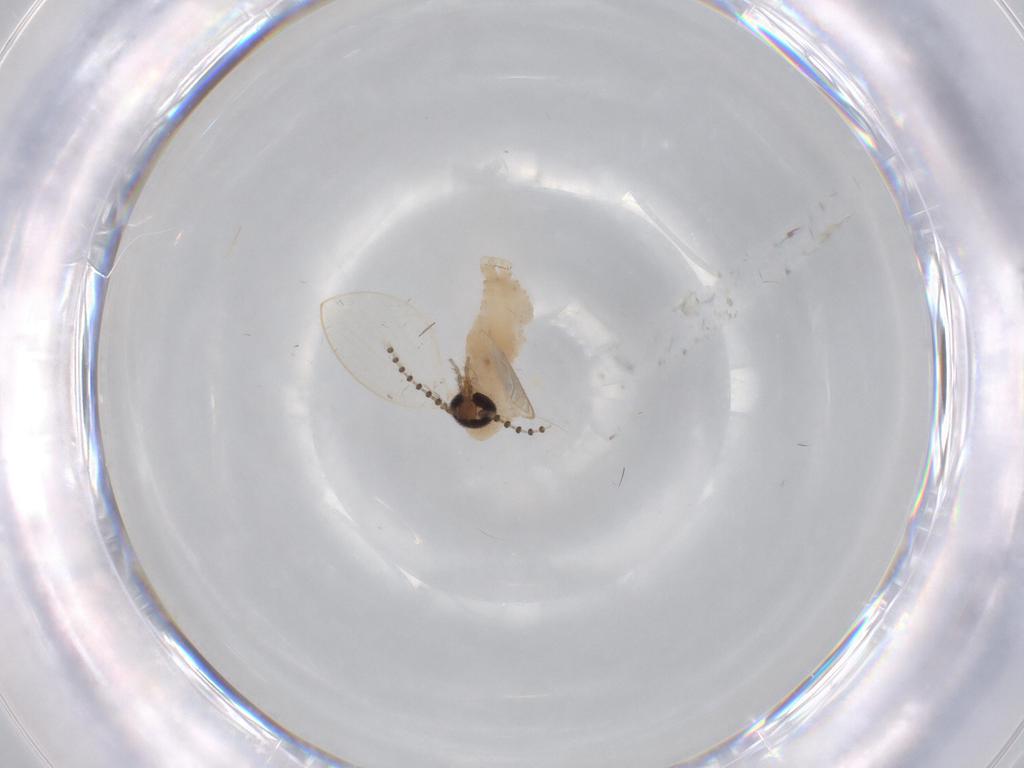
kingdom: Animalia
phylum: Arthropoda
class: Insecta
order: Diptera
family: Psychodidae
